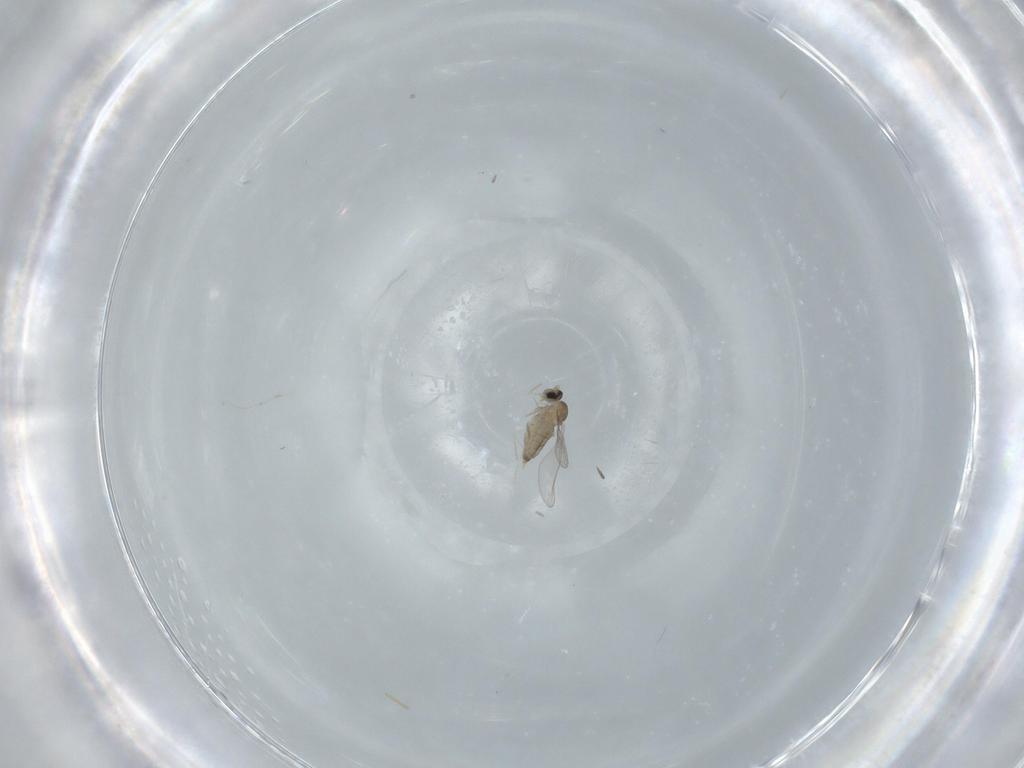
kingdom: Animalia
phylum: Arthropoda
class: Insecta
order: Diptera
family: Cecidomyiidae
